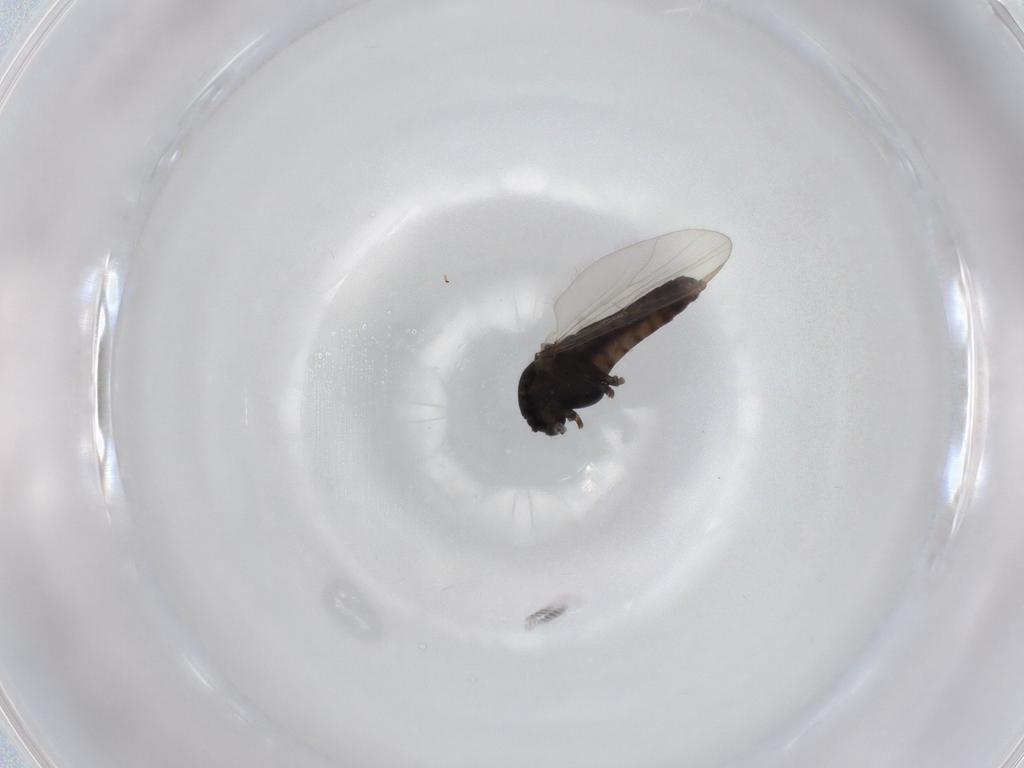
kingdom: Animalia
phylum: Arthropoda
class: Insecta
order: Diptera
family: Chironomidae
